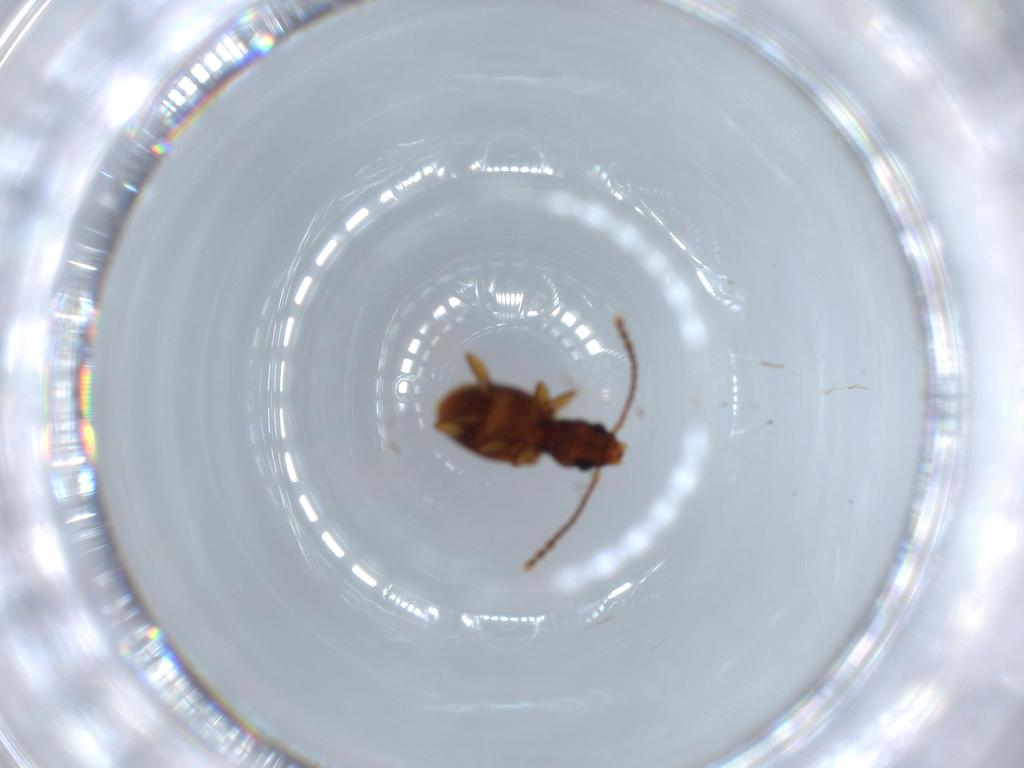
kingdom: Animalia
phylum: Arthropoda
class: Insecta
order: Coleoptera
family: Laemophloeidae
